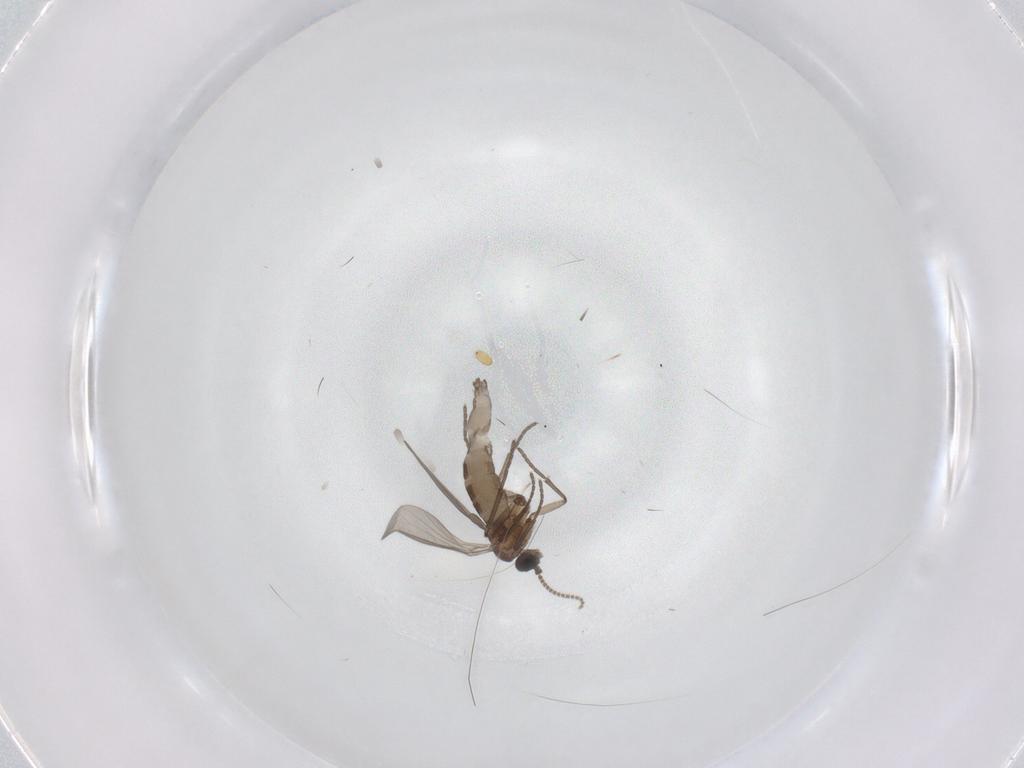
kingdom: Animalia
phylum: Arthropoda
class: Insecta
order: Diptera
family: Sciaridae
